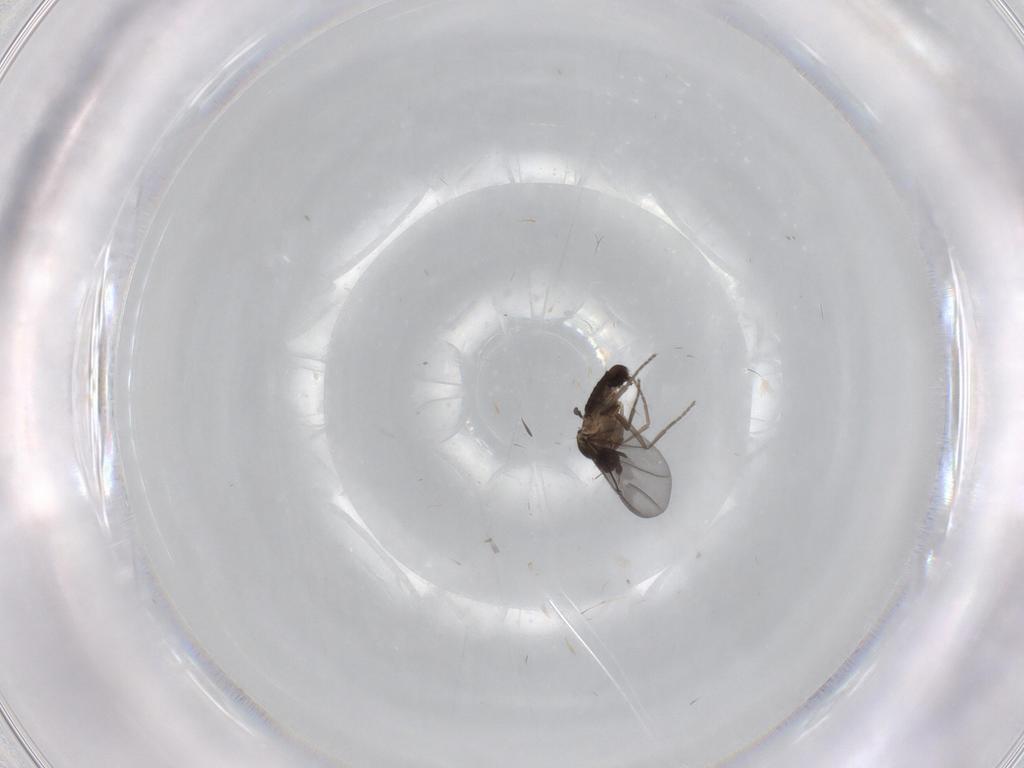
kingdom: Animalia
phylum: Arthropoda
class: Insecta
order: Diptera
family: Phoridae
